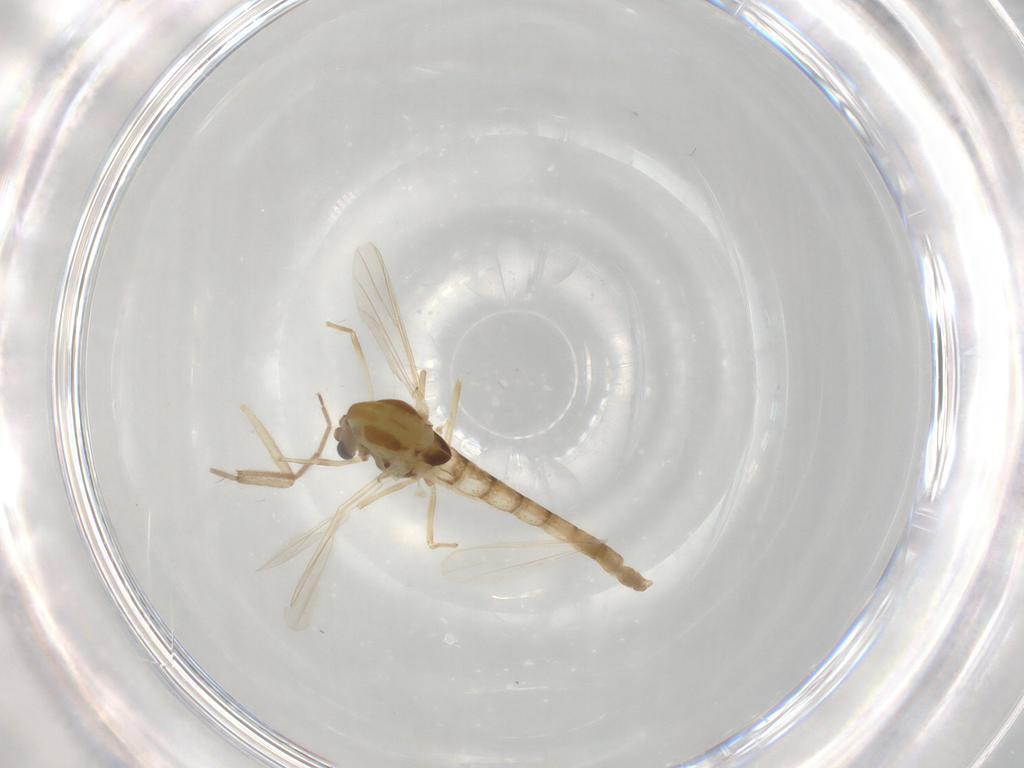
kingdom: Animalia
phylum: Arthropoda
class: Insecta
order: Diptera
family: Chironomidae
